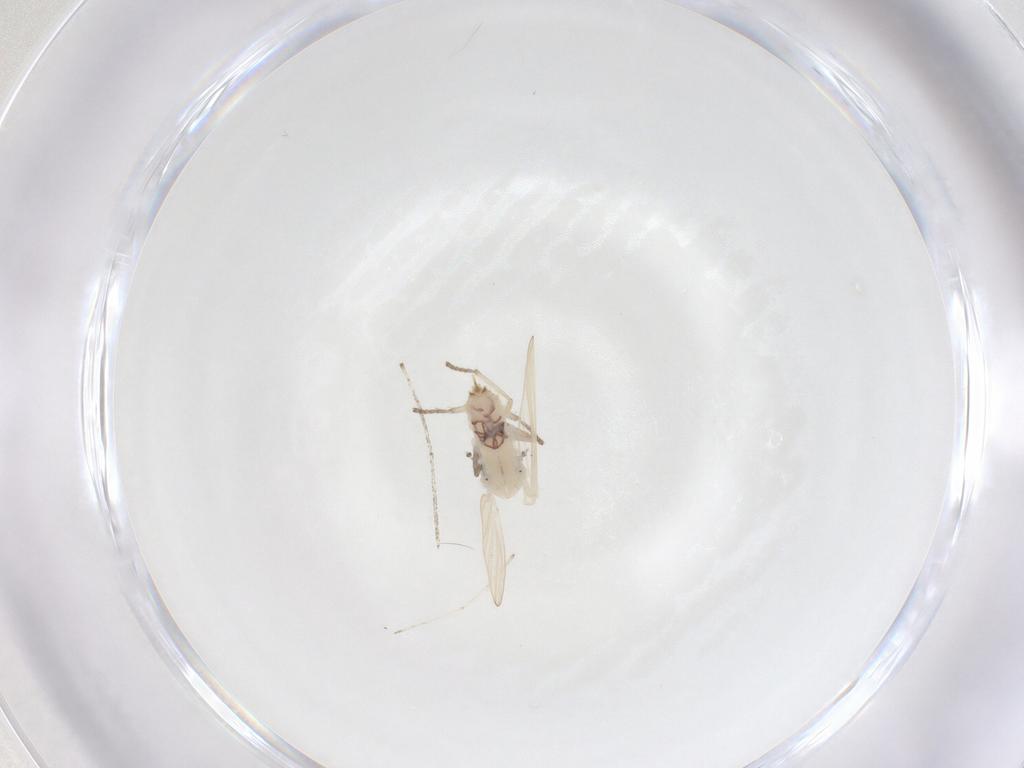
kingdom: Animalia
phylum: Arthropoda
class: Insecta
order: Diptera
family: Psychodidae
